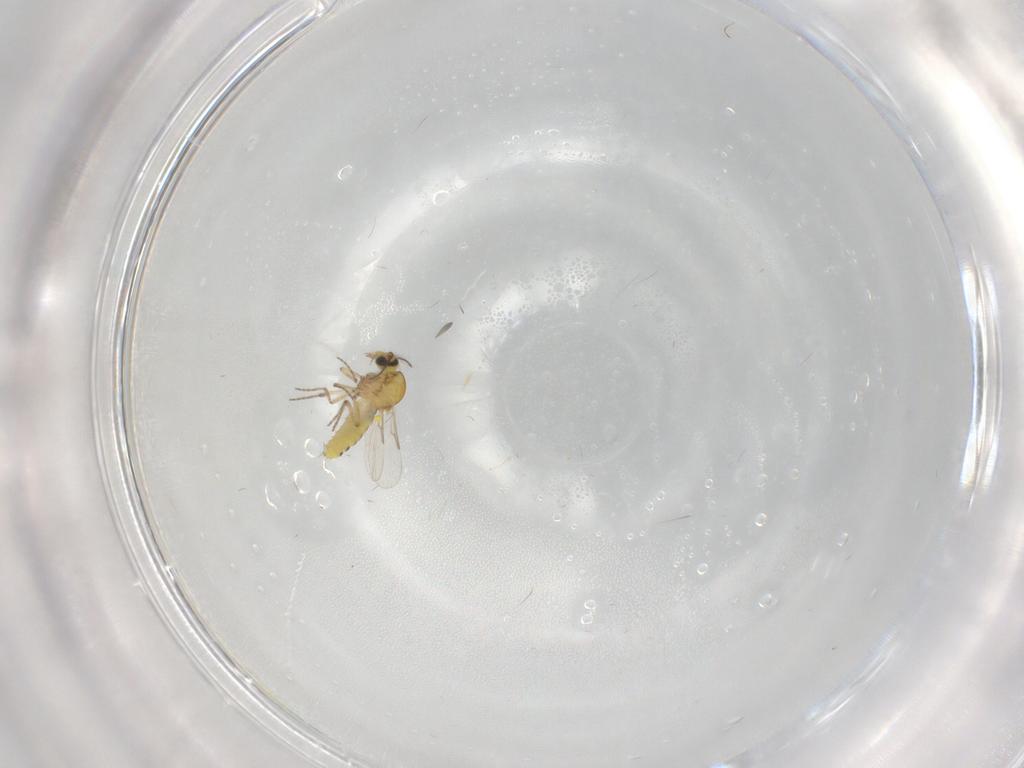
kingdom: Animalia
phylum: Arthropoda
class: Insecta
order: Diptera
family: Ceratopogonidae
